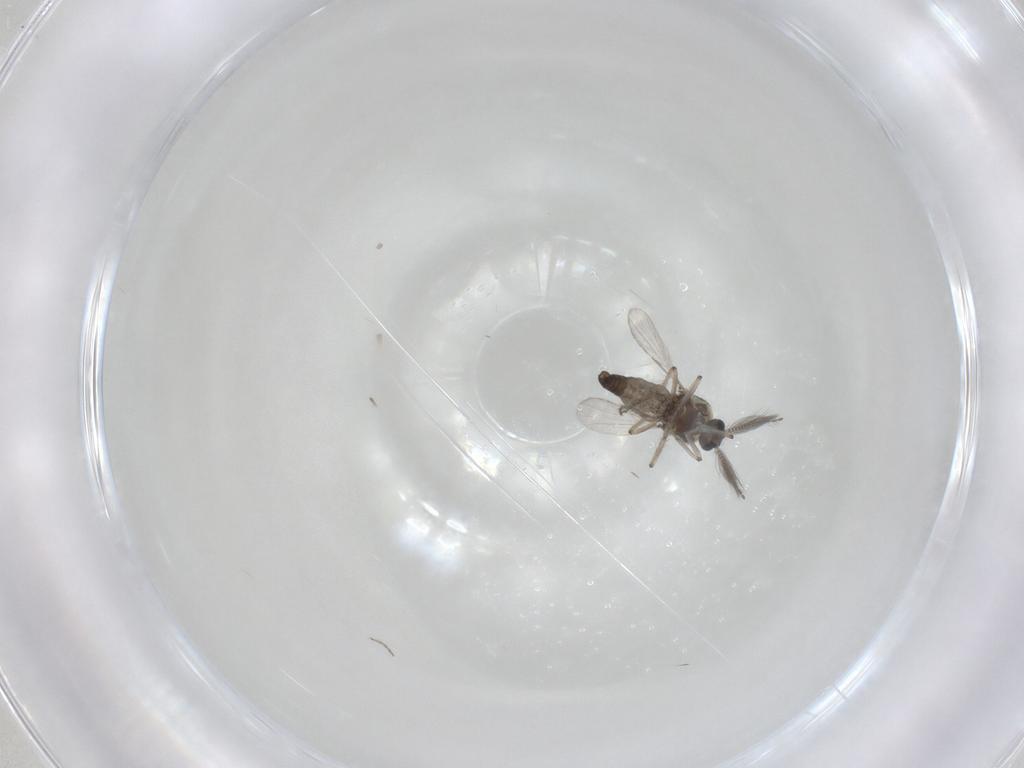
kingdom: Animalia
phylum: Arthropoda
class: Insecta
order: Diptera
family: Ceratopogonidae
